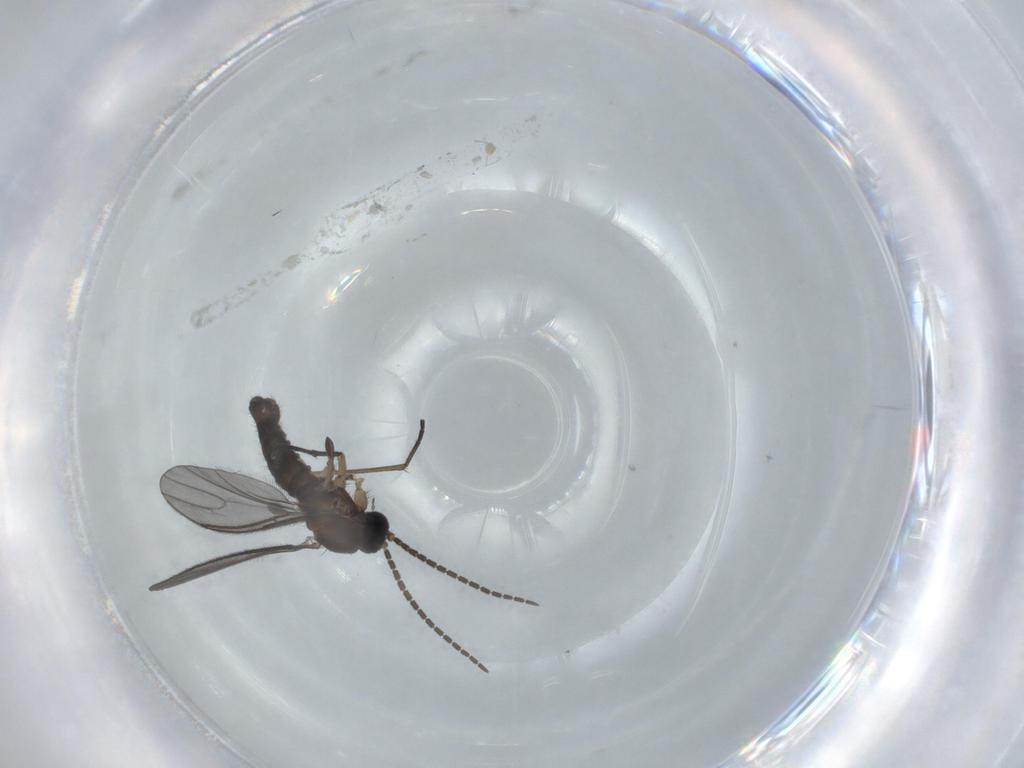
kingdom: Animalia
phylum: Arthropoda
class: Insecta
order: Diptera
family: Sciaridae
